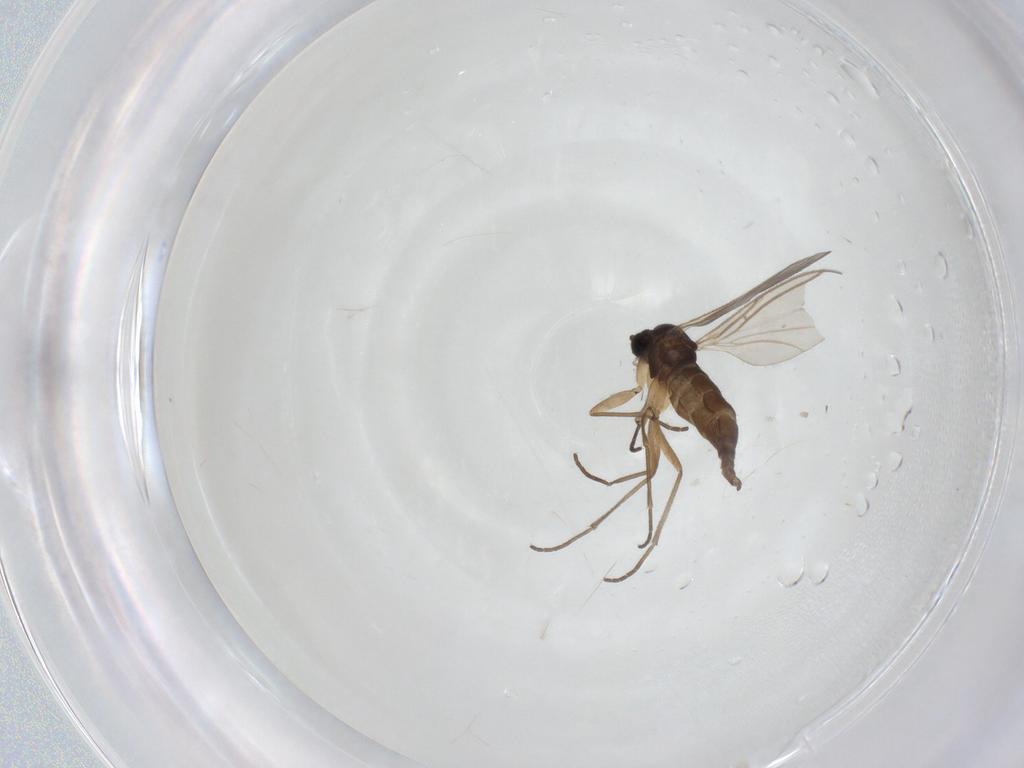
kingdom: Animalia
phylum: Arthropoda
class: Insecta
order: Diptera
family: Sciaridae
